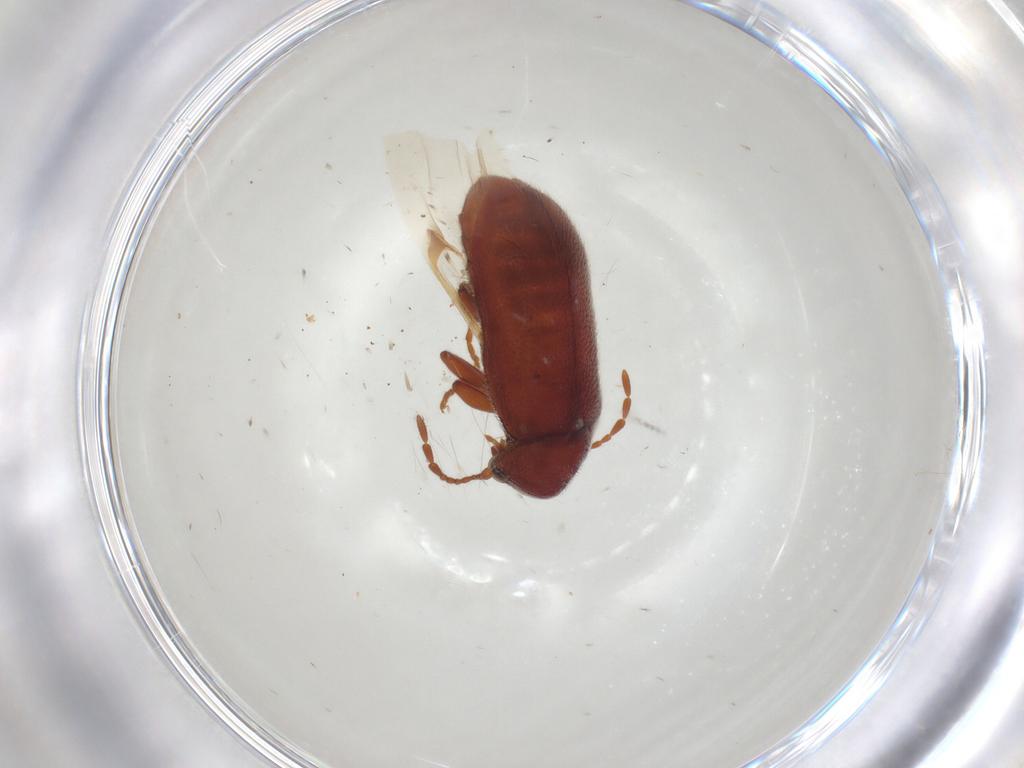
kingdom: Animalia
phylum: Arthropoda
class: Insecta
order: Coleoptera
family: Ptinidae
